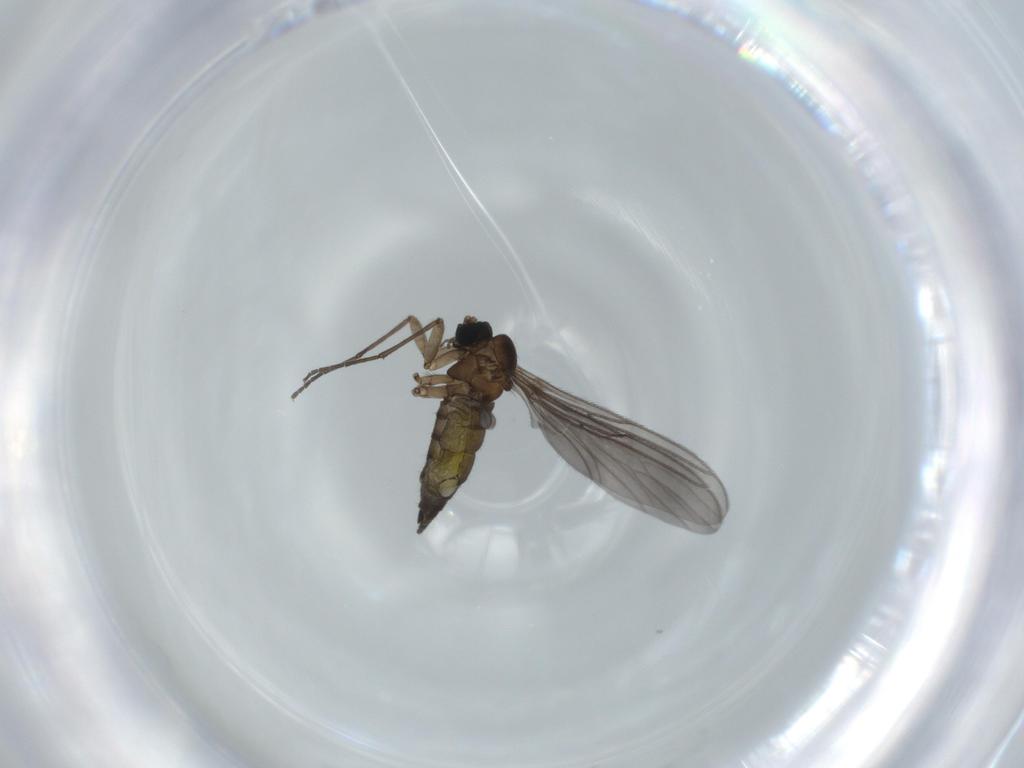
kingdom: Animalia
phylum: Arthropoda
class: Insecta
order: Diptera
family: Sciaridae
